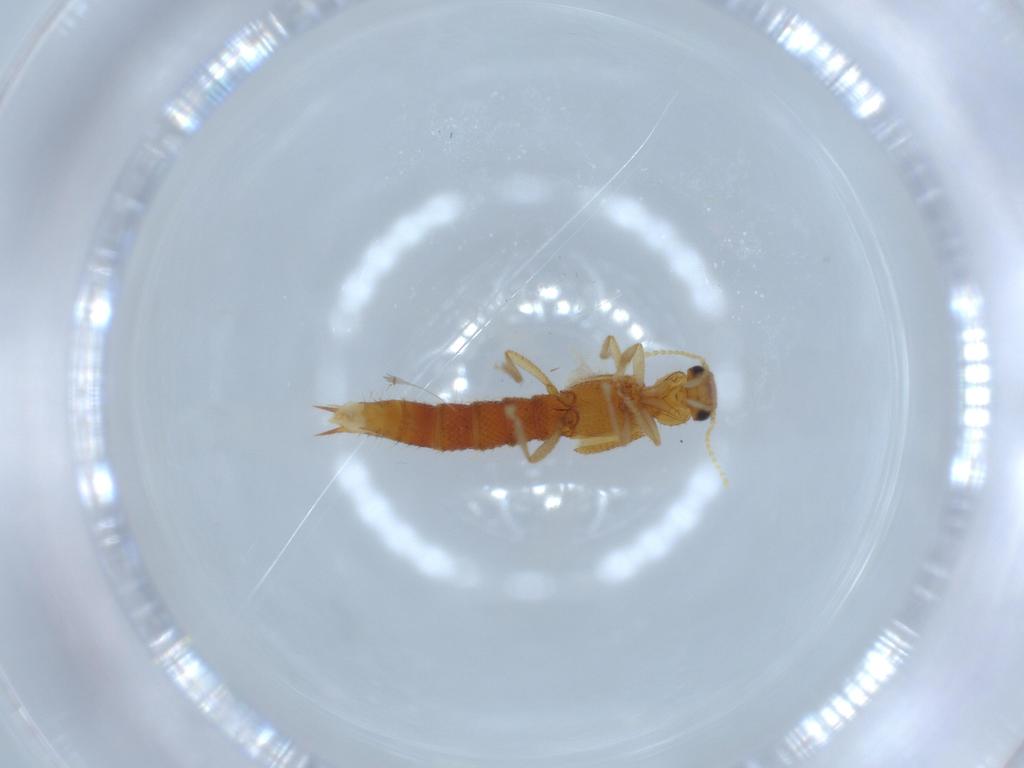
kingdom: Animalia
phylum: Arthropoda
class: Insecta
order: Coleoptera
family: Staphylinidae
